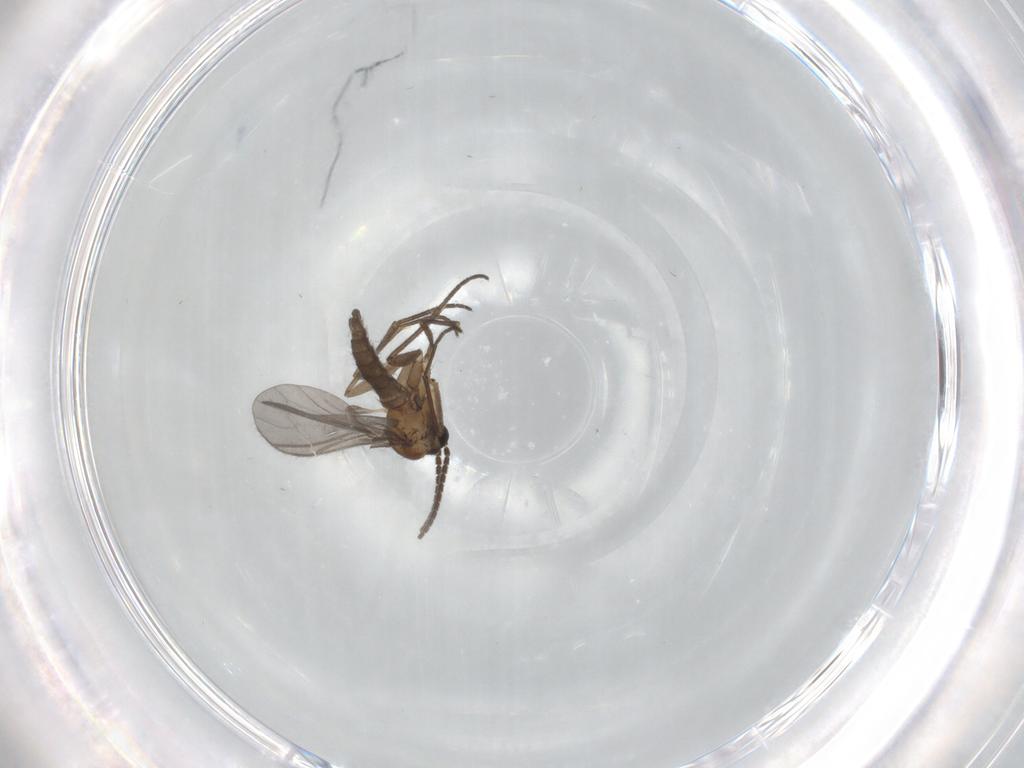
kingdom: Animalia
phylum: Arthropoda
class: Insecta
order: Diptera
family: Sciaridae
